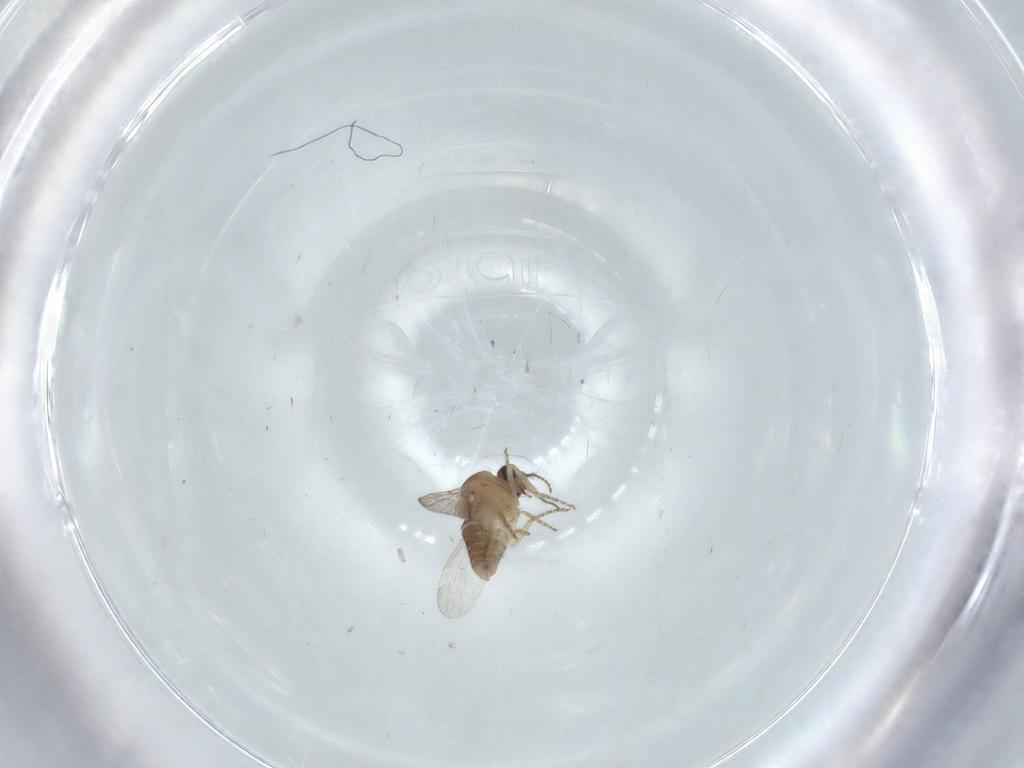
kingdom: Animalia
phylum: Arthropoda
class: Insecta
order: Diptera
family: Ceratopogonidae
